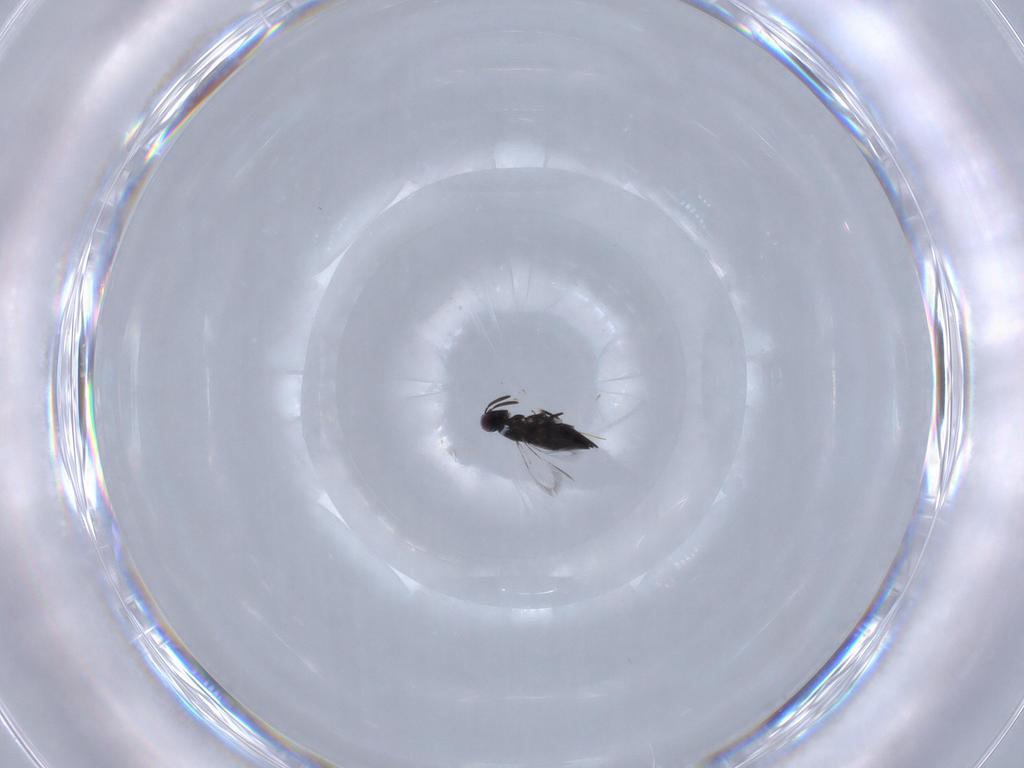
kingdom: Animalia
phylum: Arthropoda
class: Insecta
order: Hymenoptera
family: Signiphoridae
